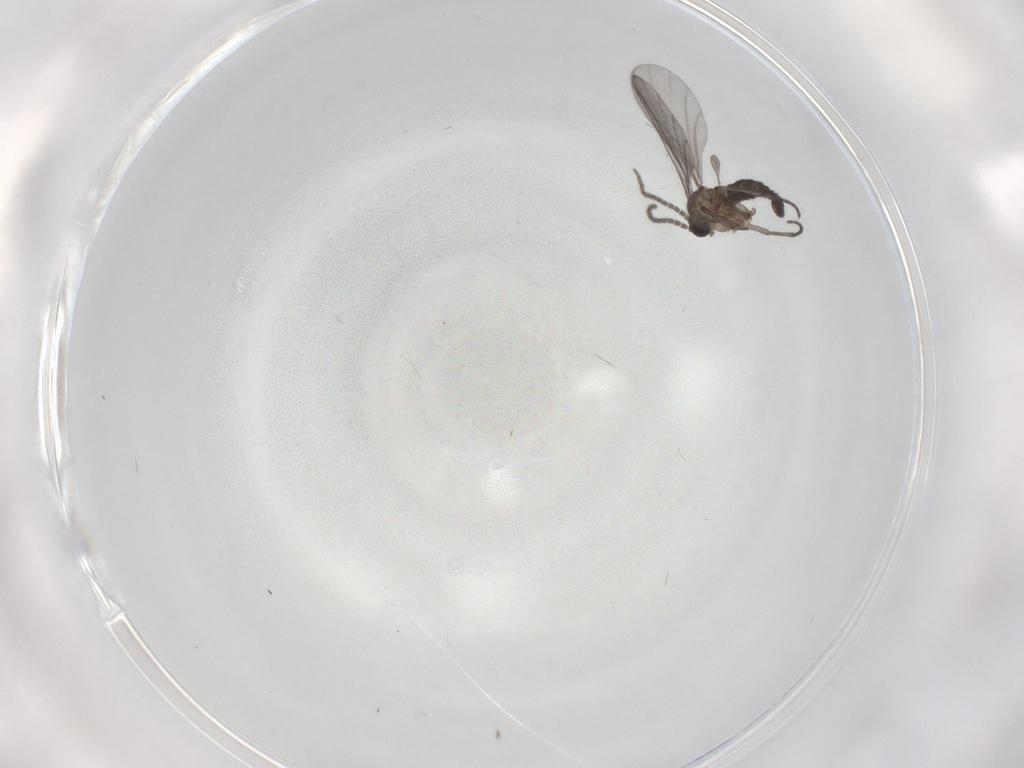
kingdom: Animalia
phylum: Arthropoda
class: Insecta
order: Diptera
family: Sciaridae
